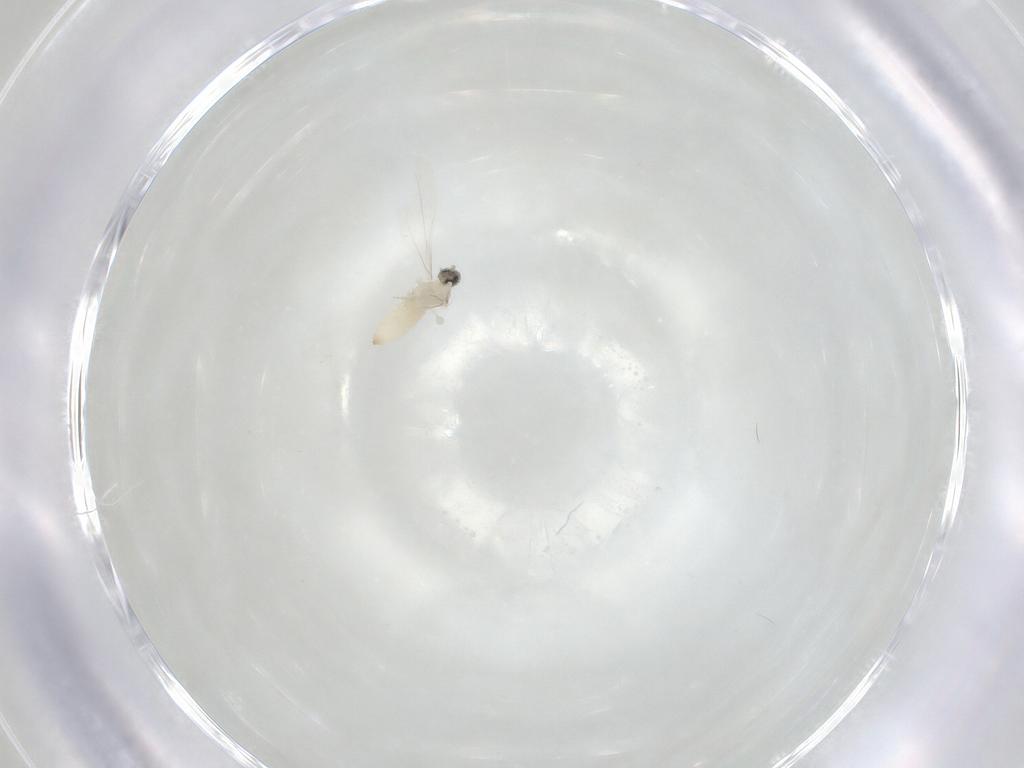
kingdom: Animalia
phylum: Arthropoda
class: Insecta
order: Diptera
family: Cecidomyiidae
